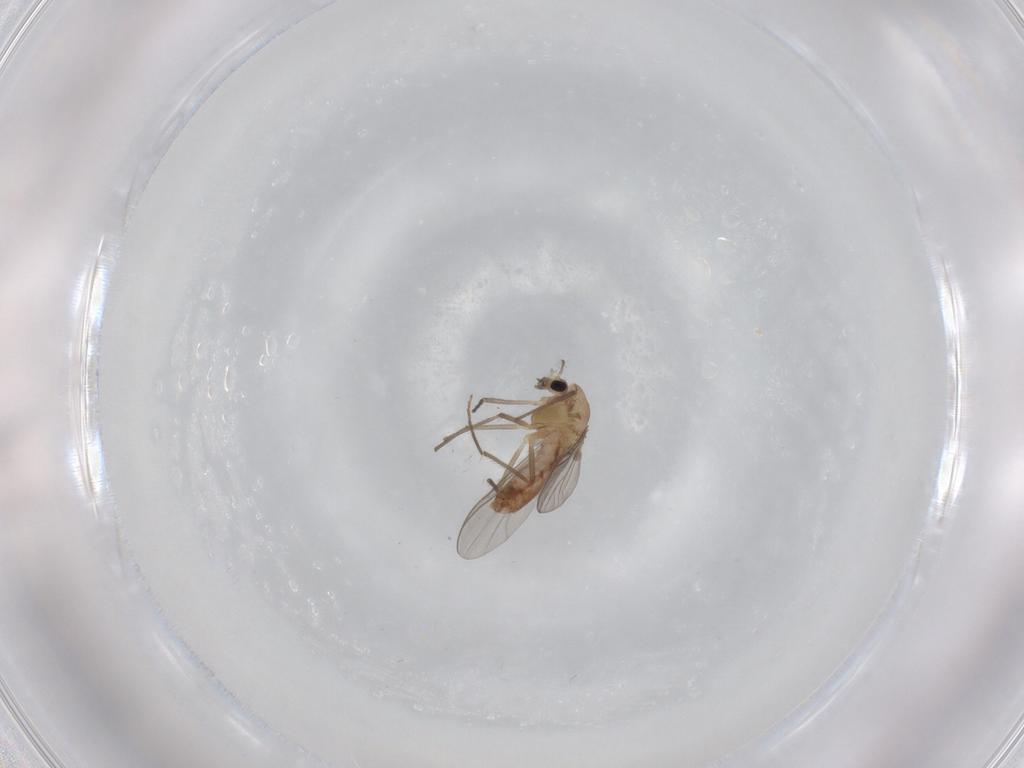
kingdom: Animalia
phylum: Arthropoda
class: Insecta
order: Diptera
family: Chironomidae
